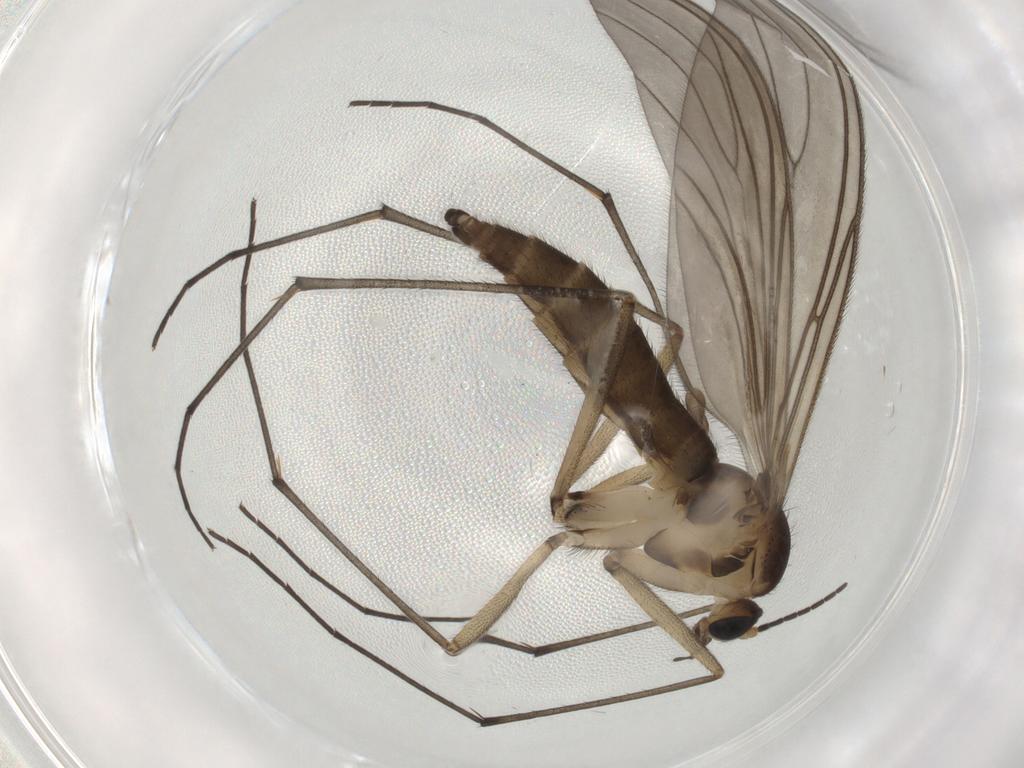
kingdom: Animalia
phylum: Arthropoda
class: Insecta
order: Diptera
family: Sciaridae
